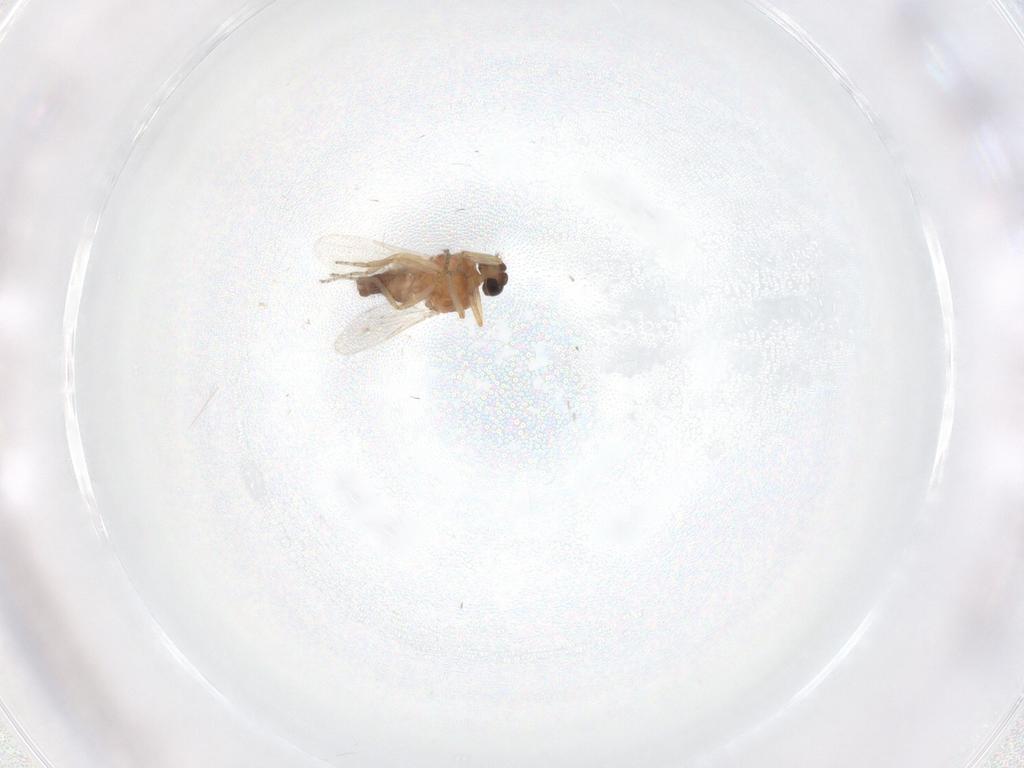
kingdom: Animalia
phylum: Arthropoda
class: Insecta
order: Diptera
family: Ceratopogonidae
